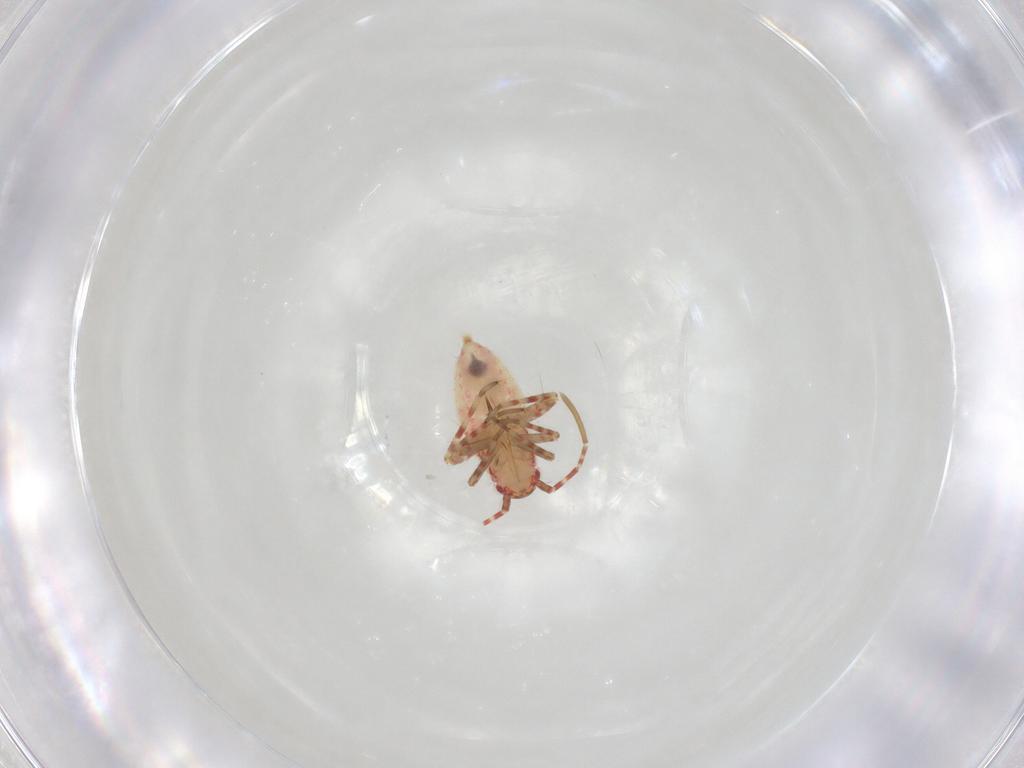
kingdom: Animalia
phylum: Arthropoda
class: Insecta
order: Hemiptera
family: Miridae
